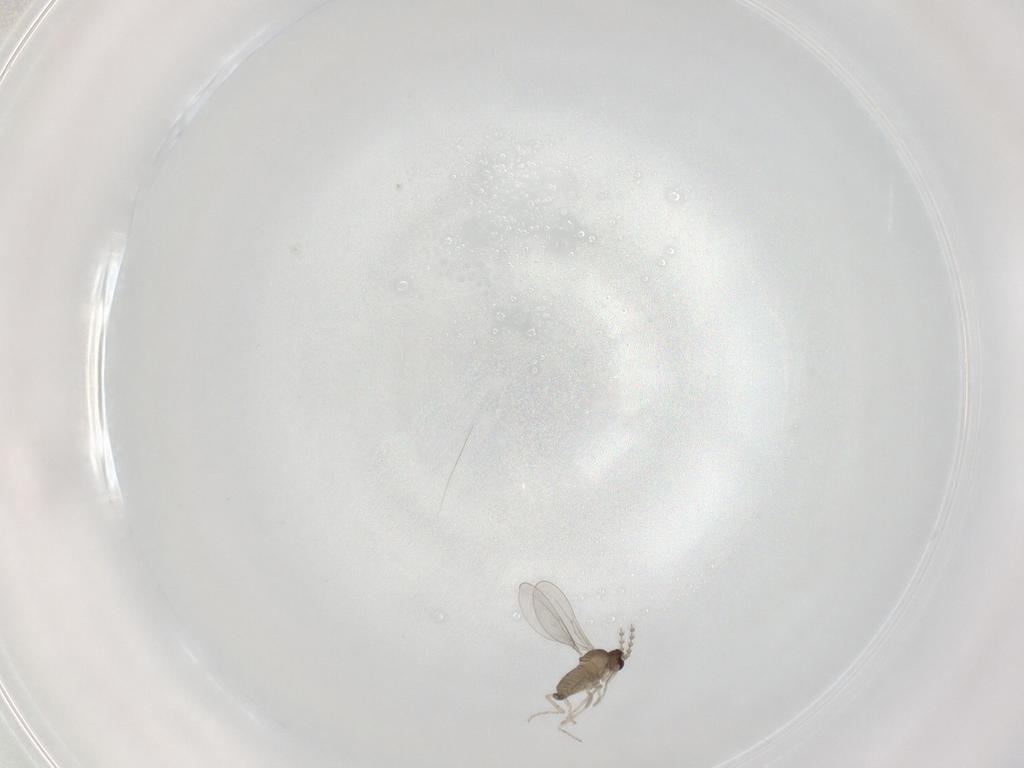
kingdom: Animalia
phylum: Arthropoda
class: Insecta
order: Diptera
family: Cecidomyiidae
